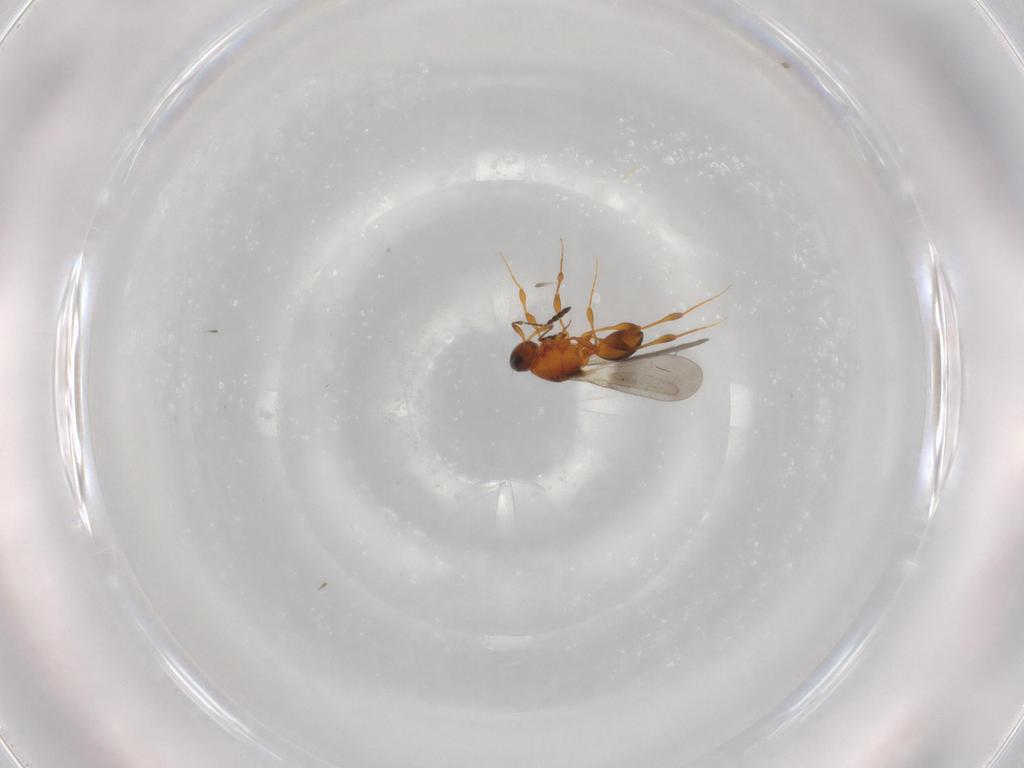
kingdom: Animalia
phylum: Arthropoda
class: Insecta
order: Hymenoptera
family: Platygastridae
